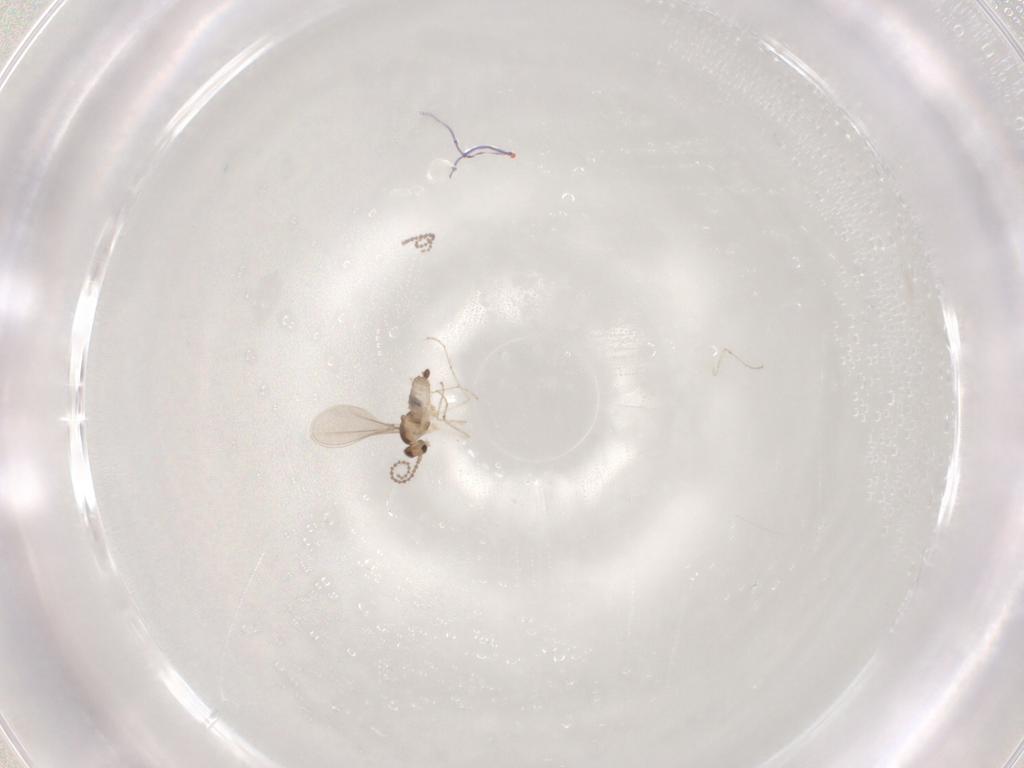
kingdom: Animalia
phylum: Arthropoda
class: Insecta
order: Diptera
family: Cecidomyiidae
